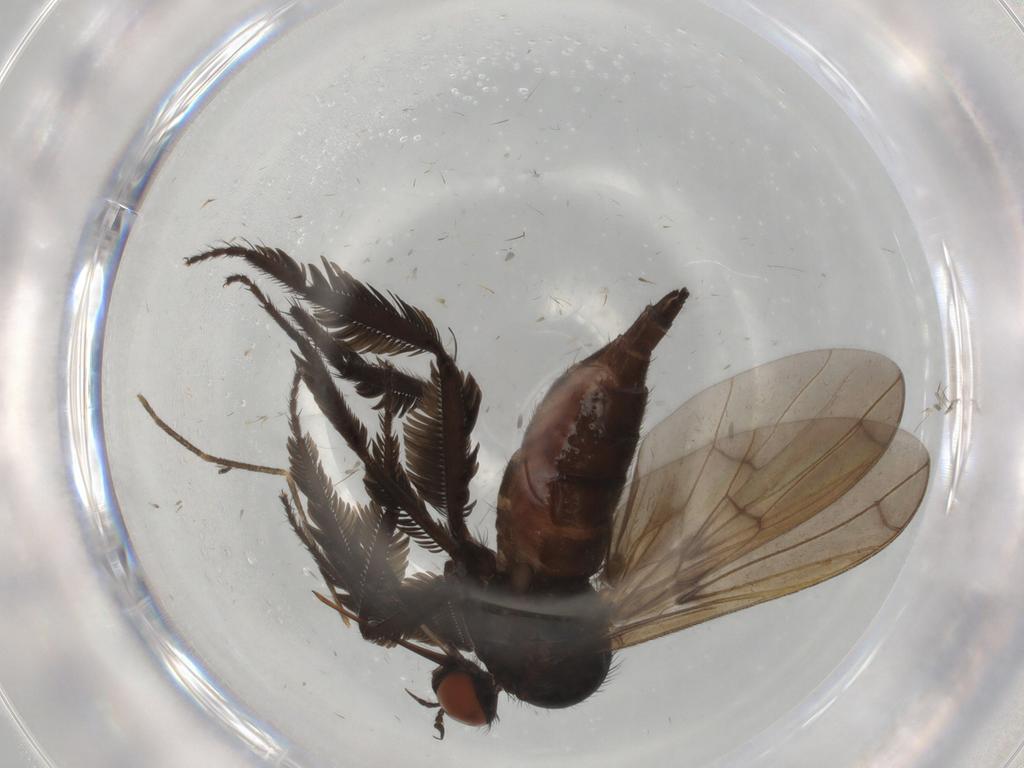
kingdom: Animalia
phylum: Arthropoda
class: Insecta
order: Diptera
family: Empididae
